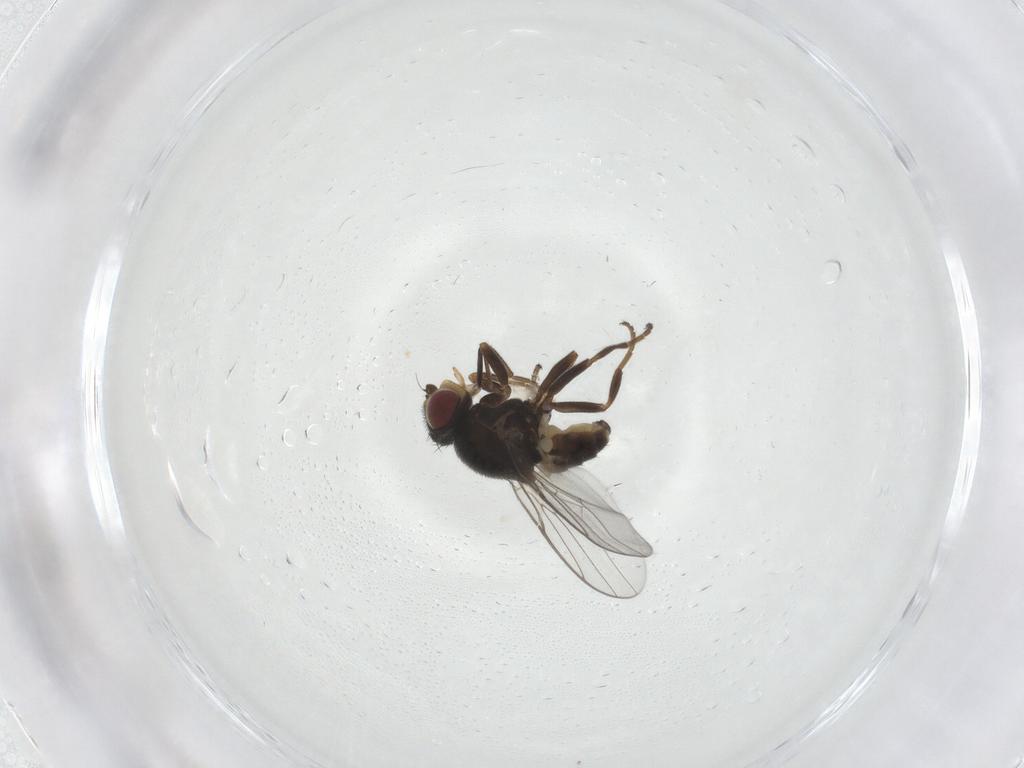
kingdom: Animalia
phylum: Arthropoda
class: Insecta
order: Diptera
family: Chloropidae
